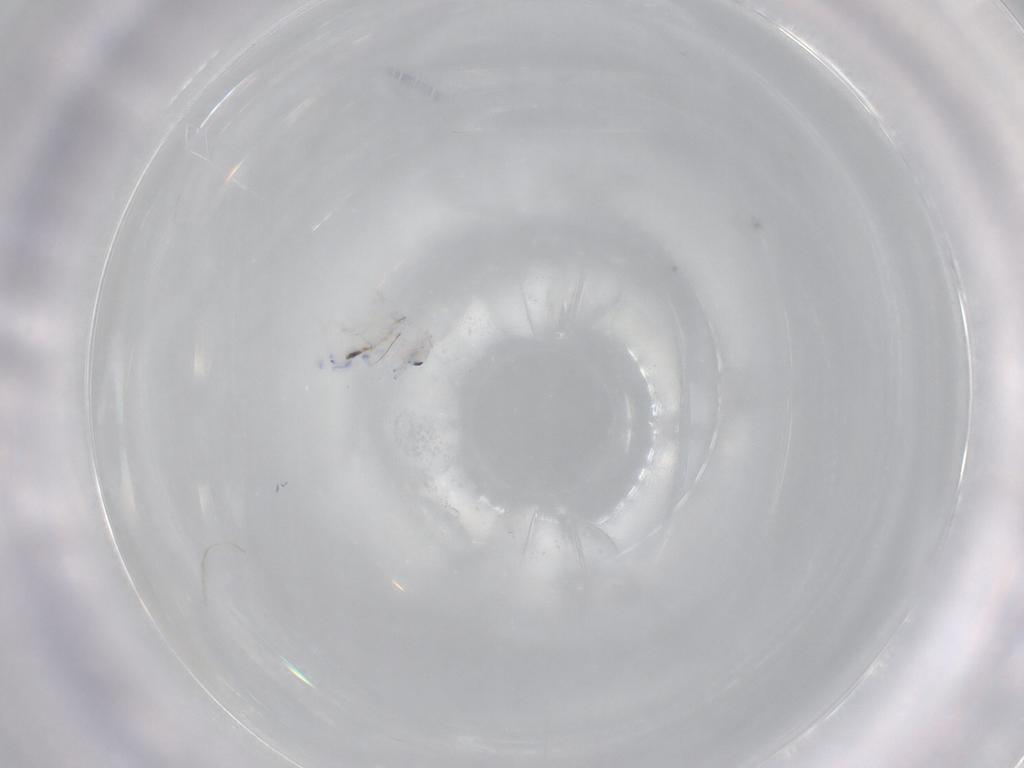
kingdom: Animalia
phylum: Arthropoda
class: Collembola
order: Entomobryomorpha
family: Entomobryidae
